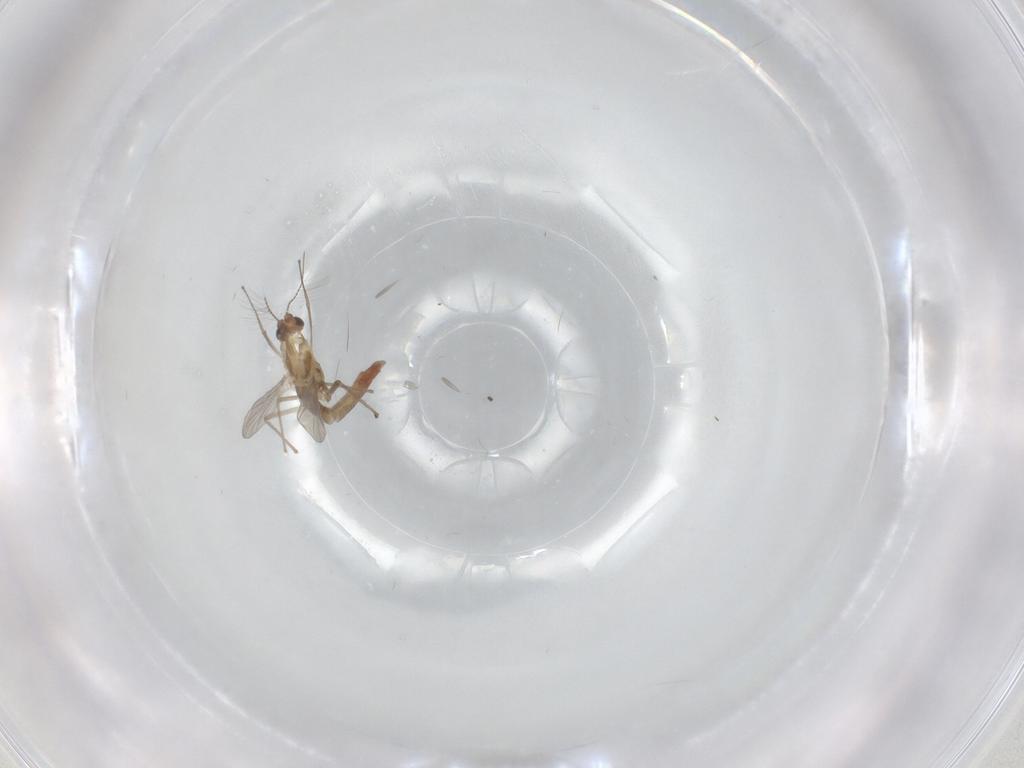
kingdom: Animalia
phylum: Arthropoda
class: Insecta
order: Diptera
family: Chironomidae
